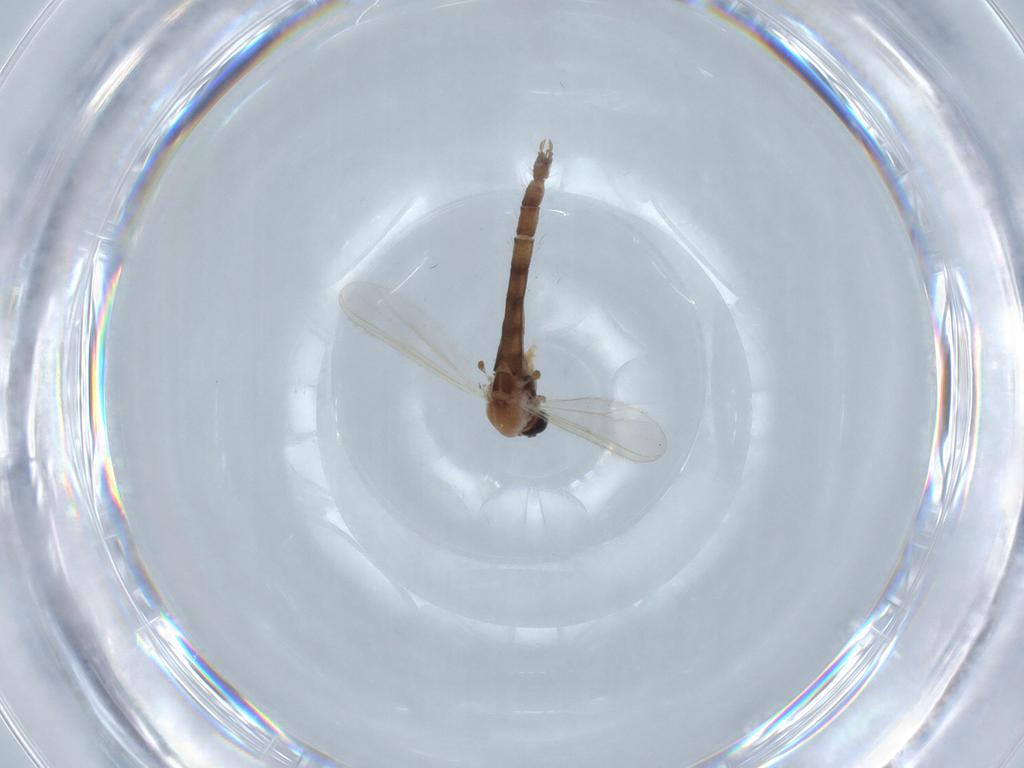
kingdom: Animalia
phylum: Arthropoda
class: Insecta
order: Diptera
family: Chironomidae
